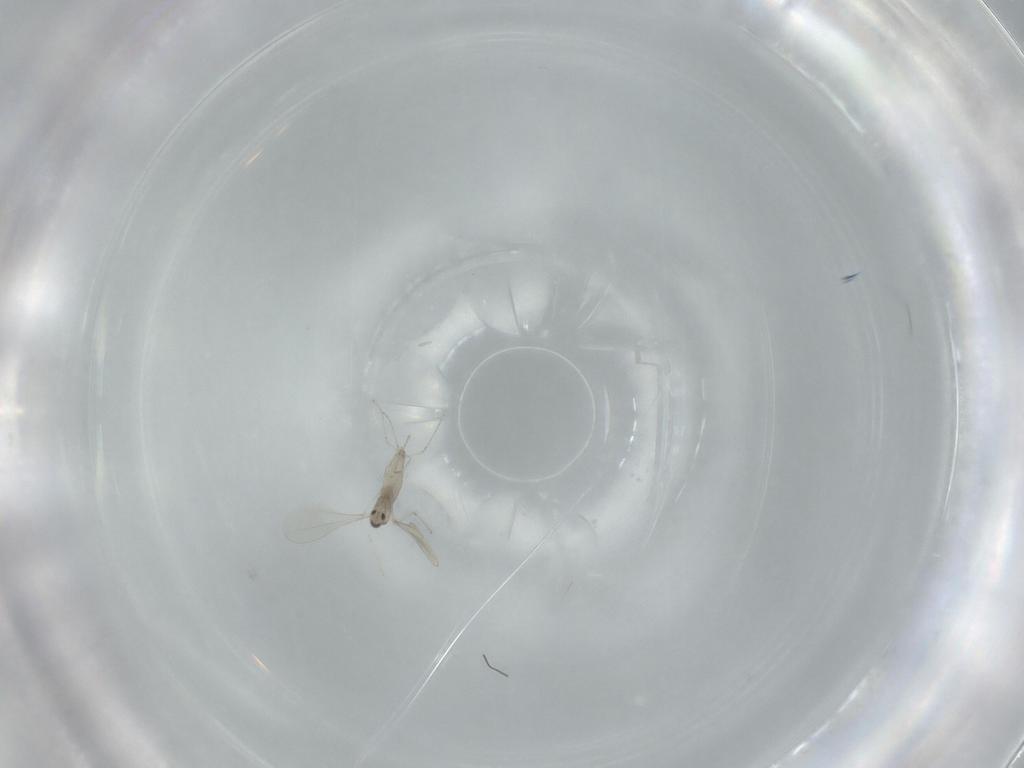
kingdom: Animalia
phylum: Arthropoda
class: Insecta
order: Diptera
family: Cecidomyiidae
